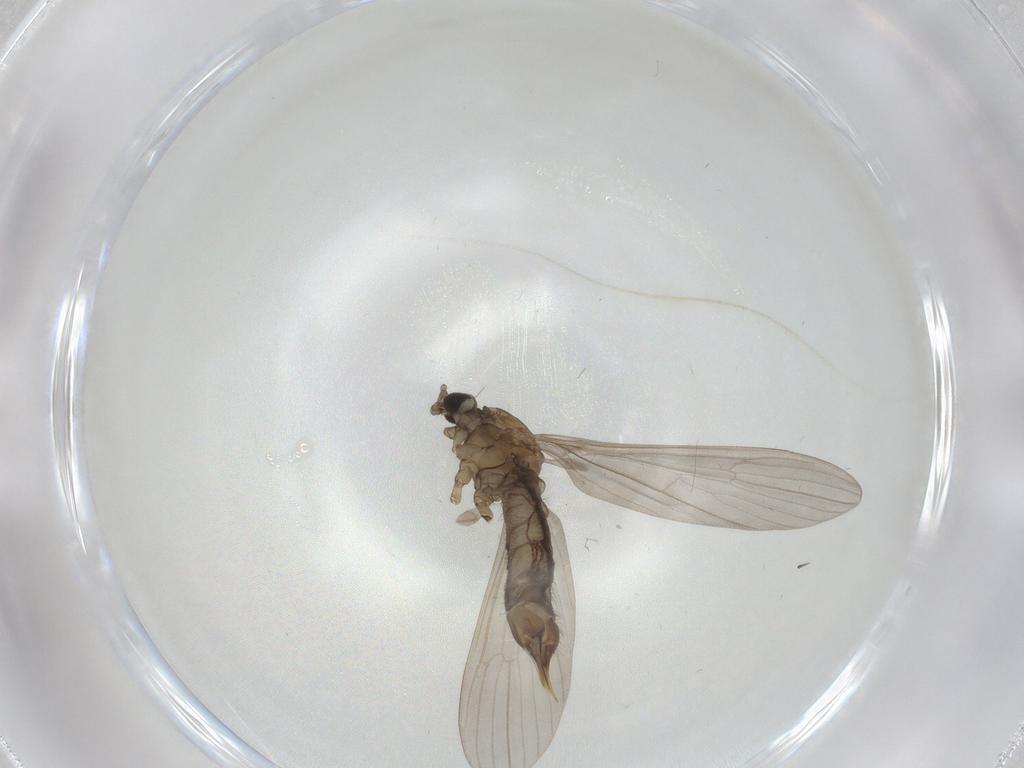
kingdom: Animalia
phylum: Arthropoda
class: Insecta
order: Diptera
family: Limoniidae
